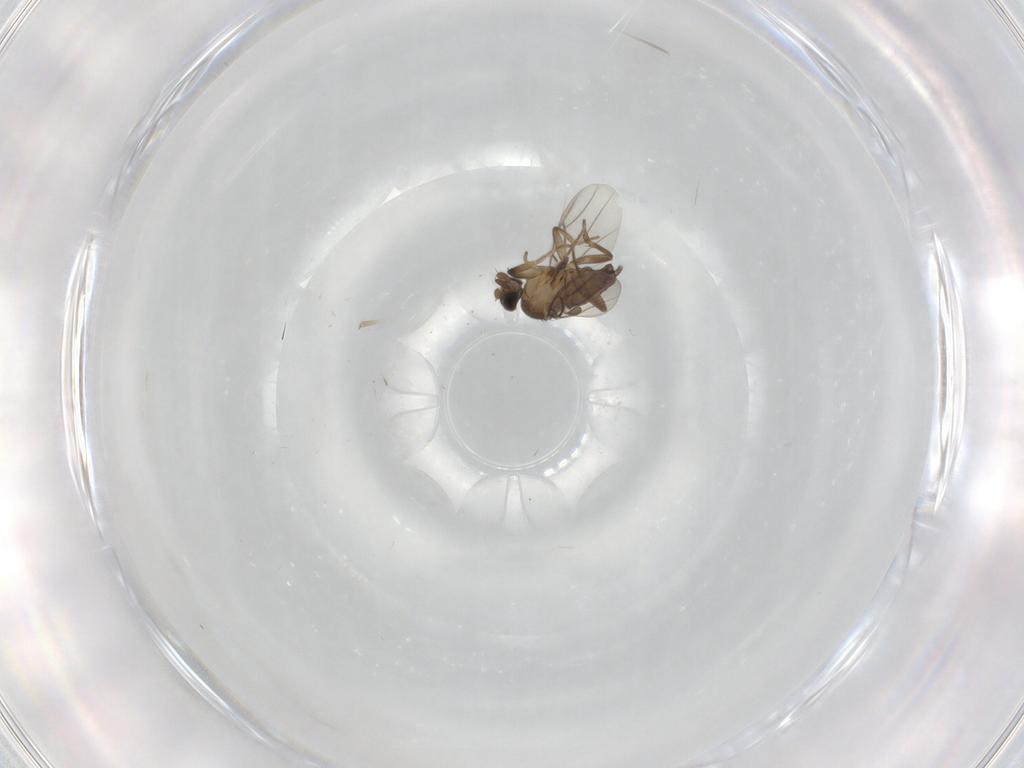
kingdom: Animalia
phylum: Arthropoda
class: Insecta
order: Diptera
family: Phoridae
